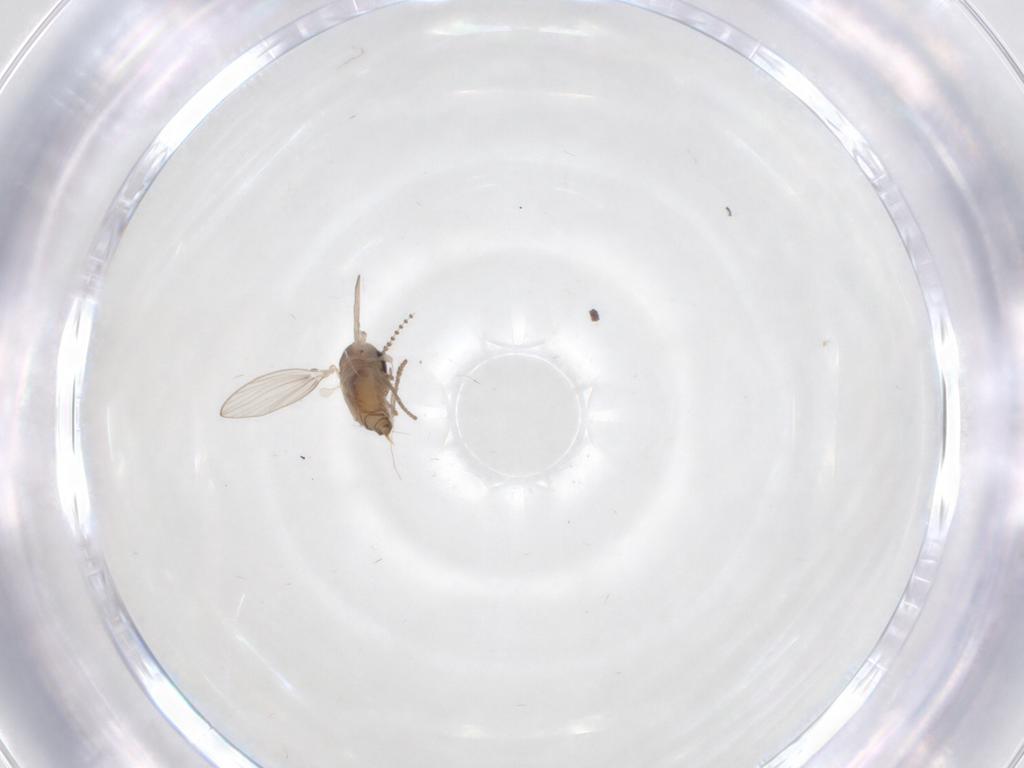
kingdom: Animalia
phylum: Arthropoda
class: Insecta
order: Diptera
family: Psychodidae
